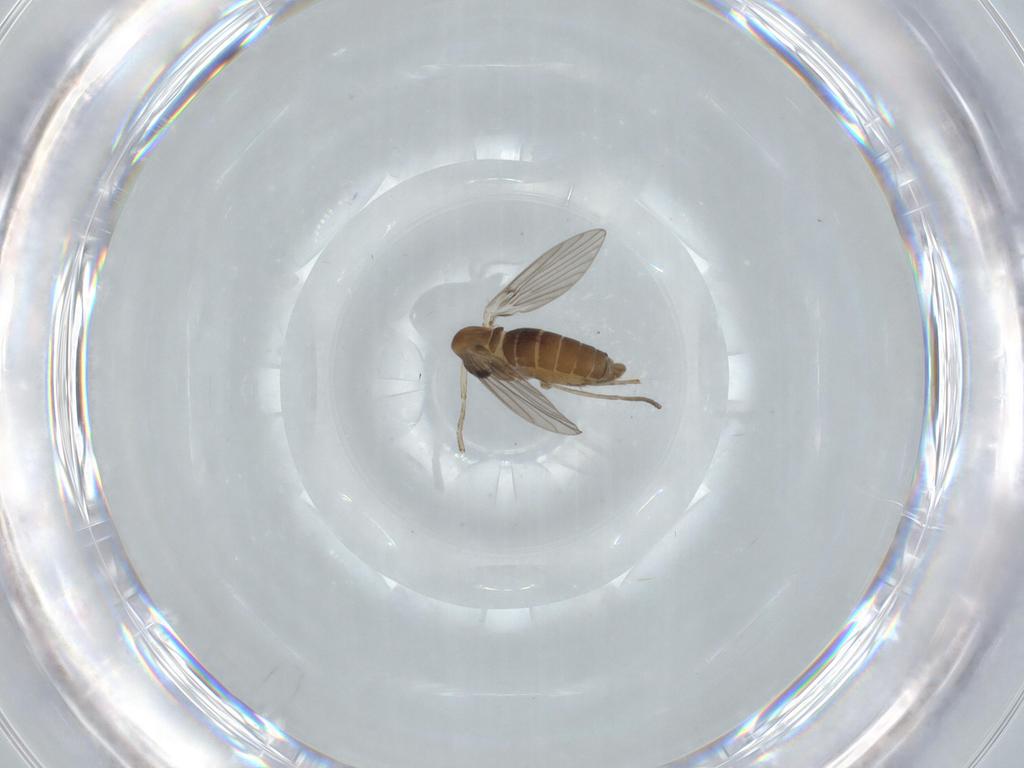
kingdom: Animalia
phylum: Arthropoda
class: Insecta
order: Diptera
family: Psychodidae
